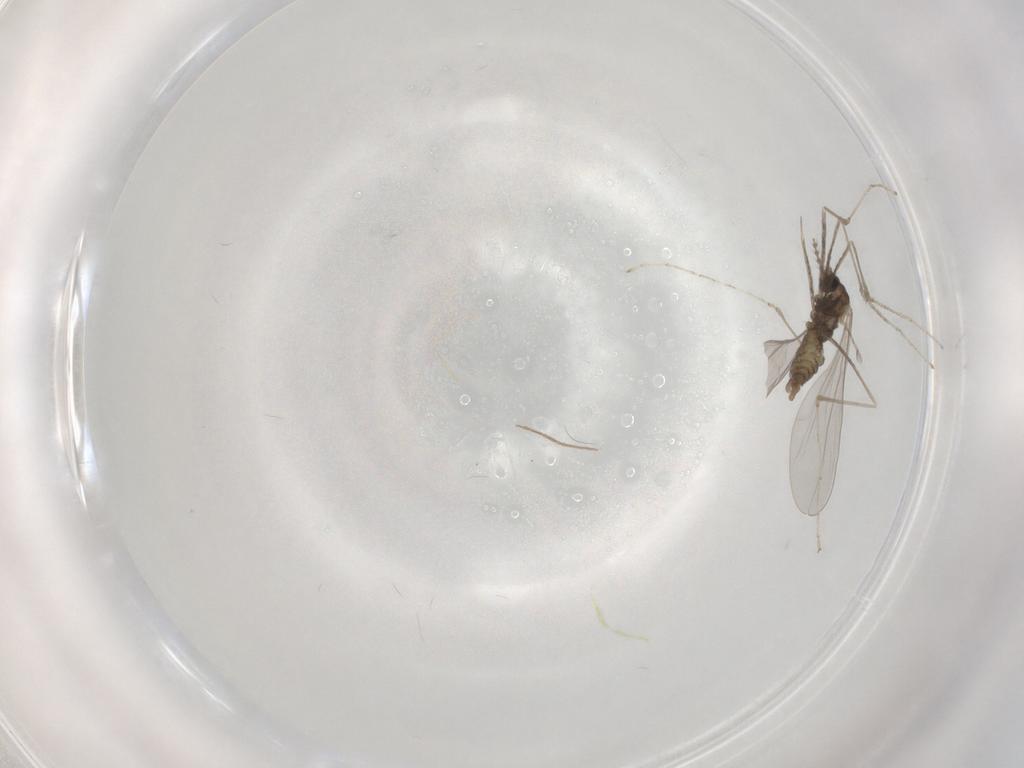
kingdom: Animalia
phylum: Arthropoda
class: Insecta
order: Diptera
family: Cecidomyiidae
